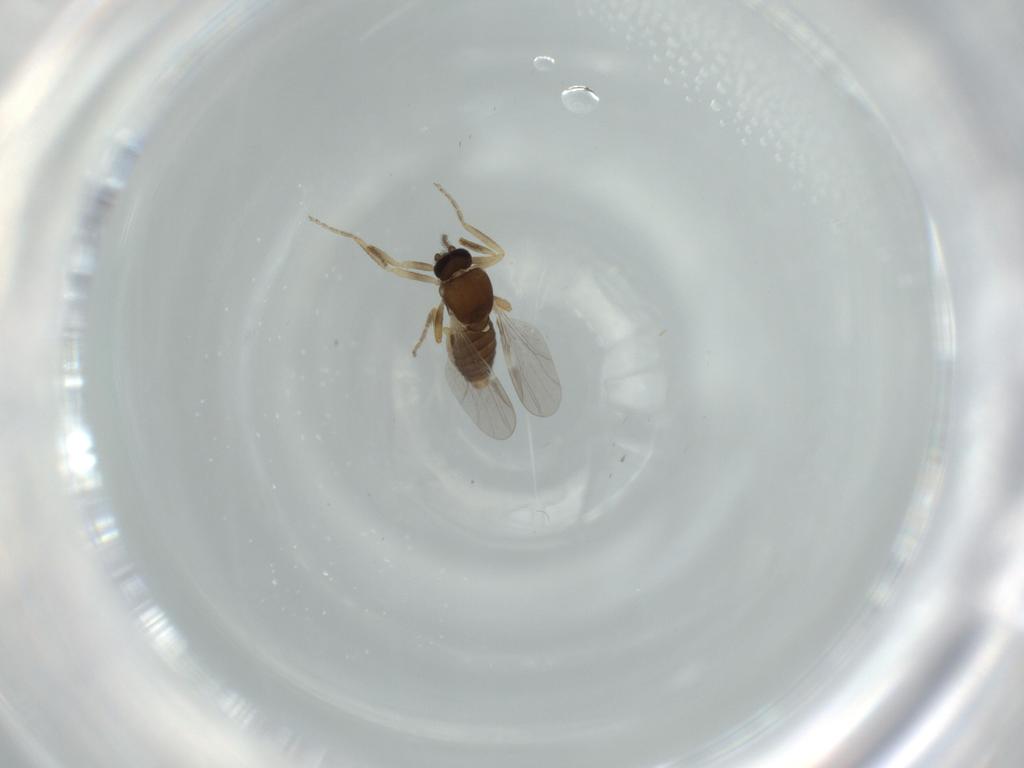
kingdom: Animalia
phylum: Arthropoda
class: Insecta
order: Diptera
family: Ceratopogonidae
